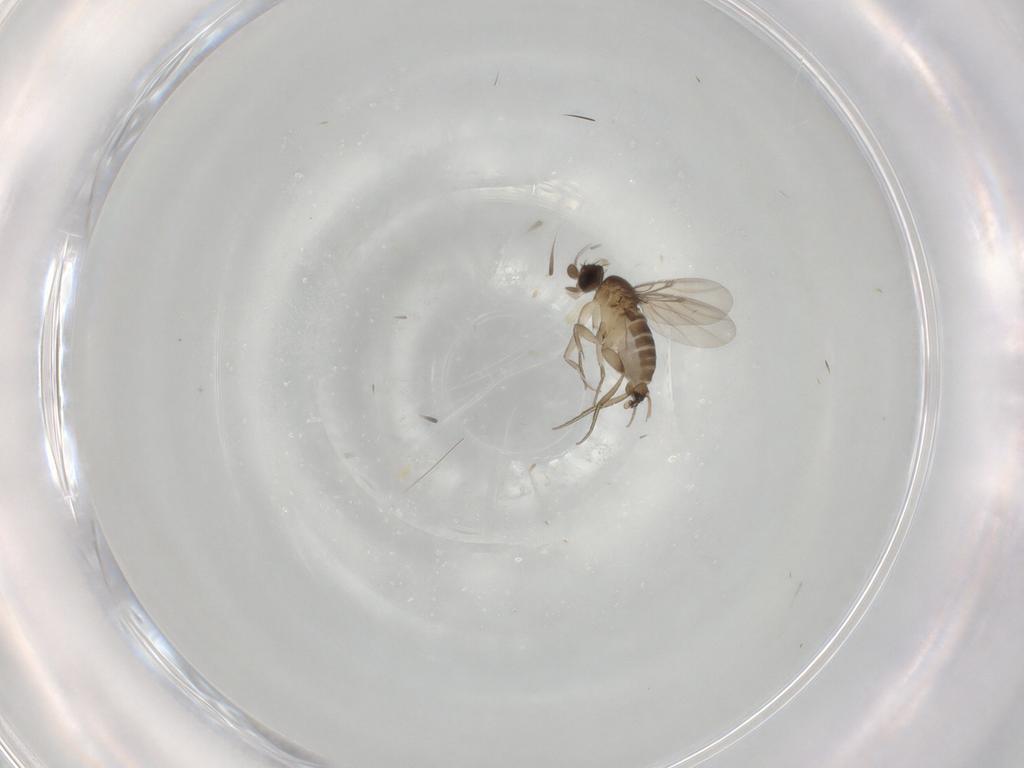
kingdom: Animalia
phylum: Arthropoda
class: Insecta
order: Diptera
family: Phoridae
